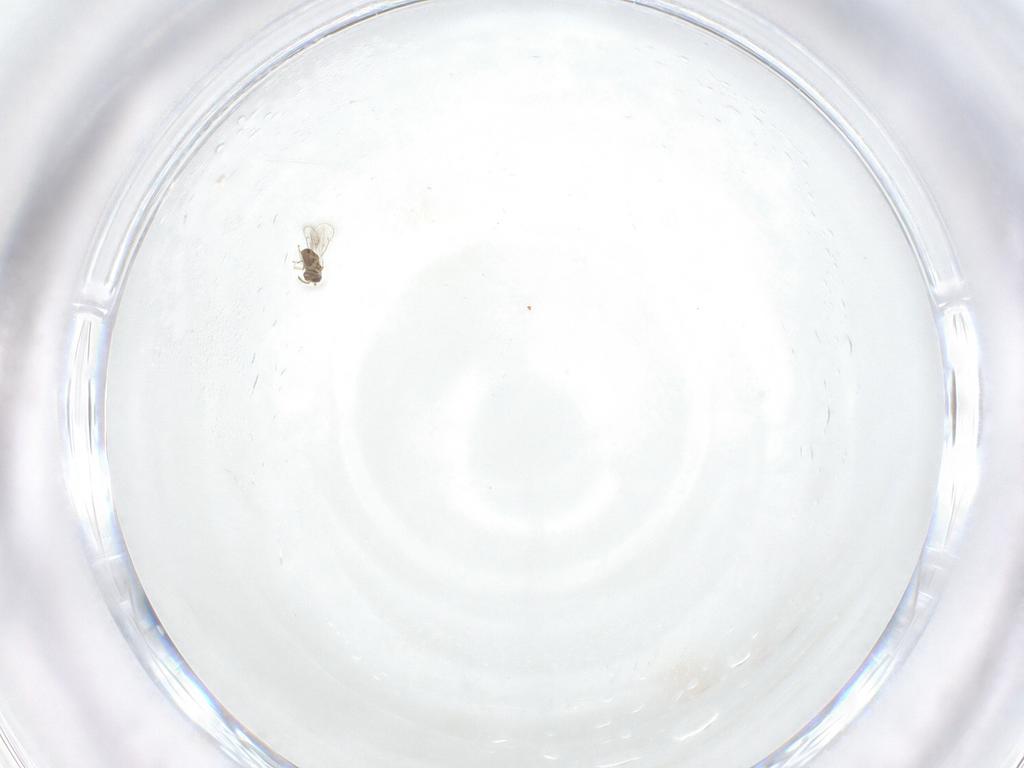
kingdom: Animalia
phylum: Arthropoda
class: Insecta
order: Hymenoptera
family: Eulophidae
